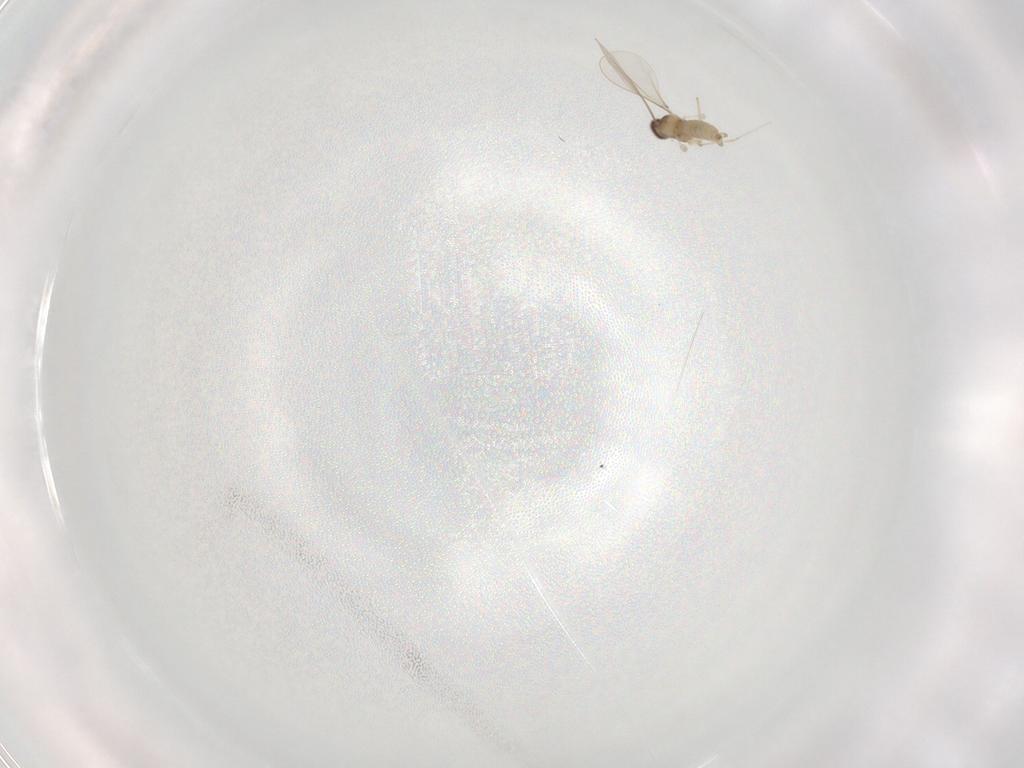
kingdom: Animalia
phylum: Arthropoda
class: Insecta
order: Diptera
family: Cecidomyiidae
